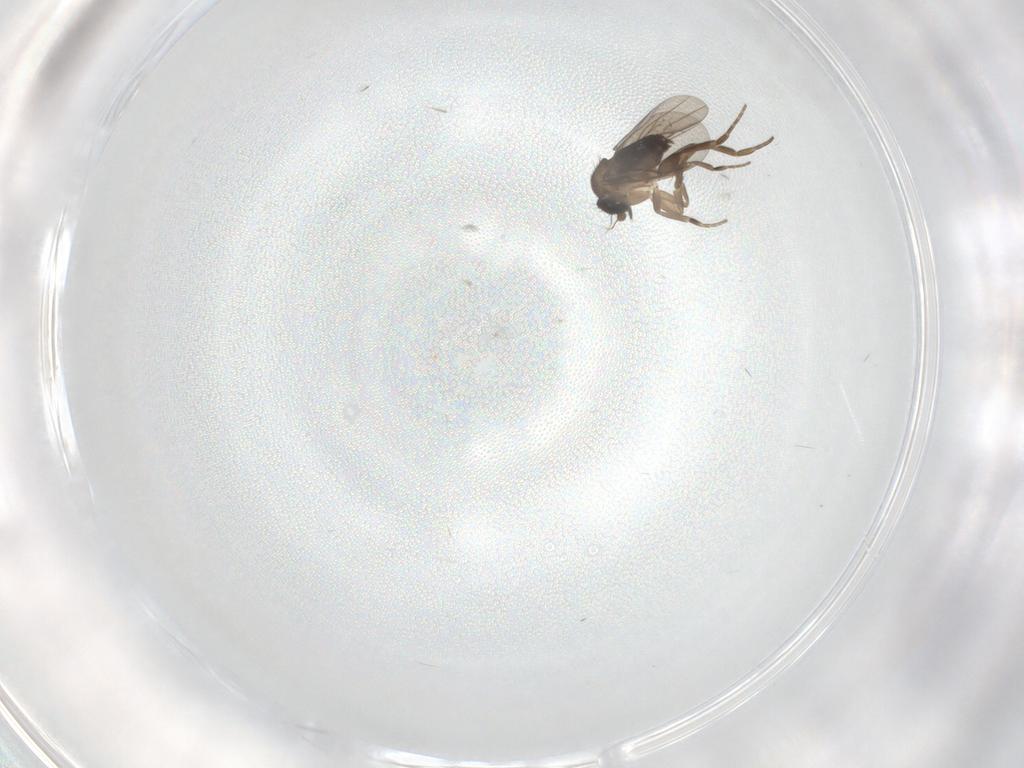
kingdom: Animalia
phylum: Arthropoda
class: Insecta
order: Diptera
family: Phoridae
